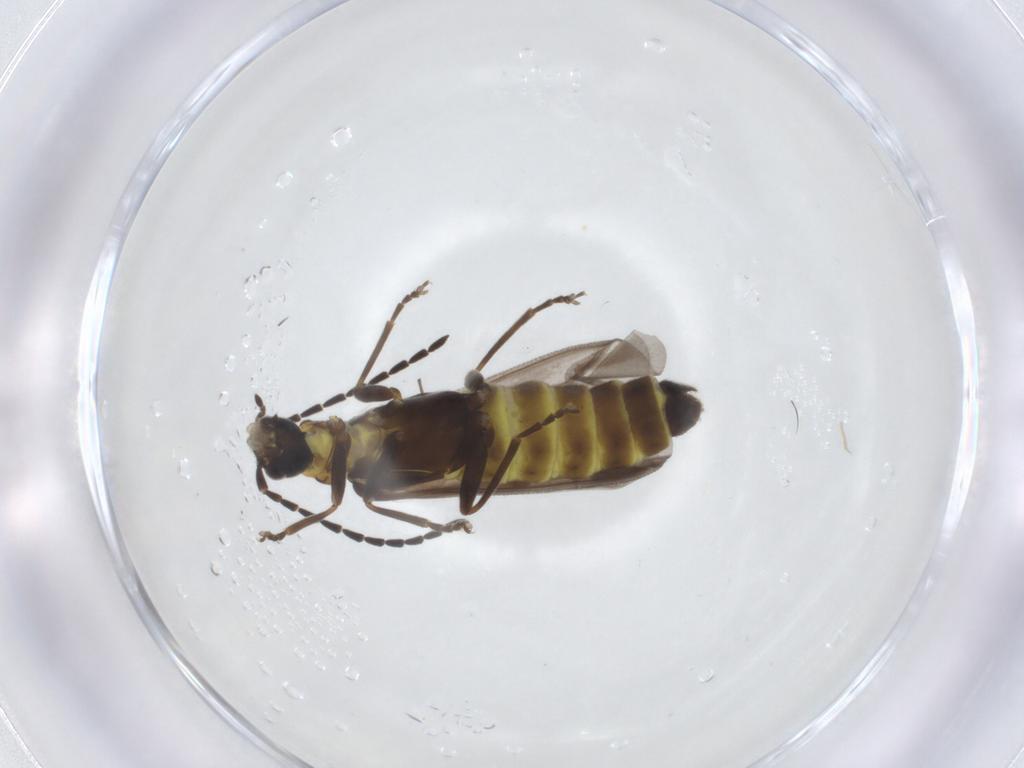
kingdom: Animalia
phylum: Arthropoda
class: Insecta
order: Coleoptera
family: Cantharidae
